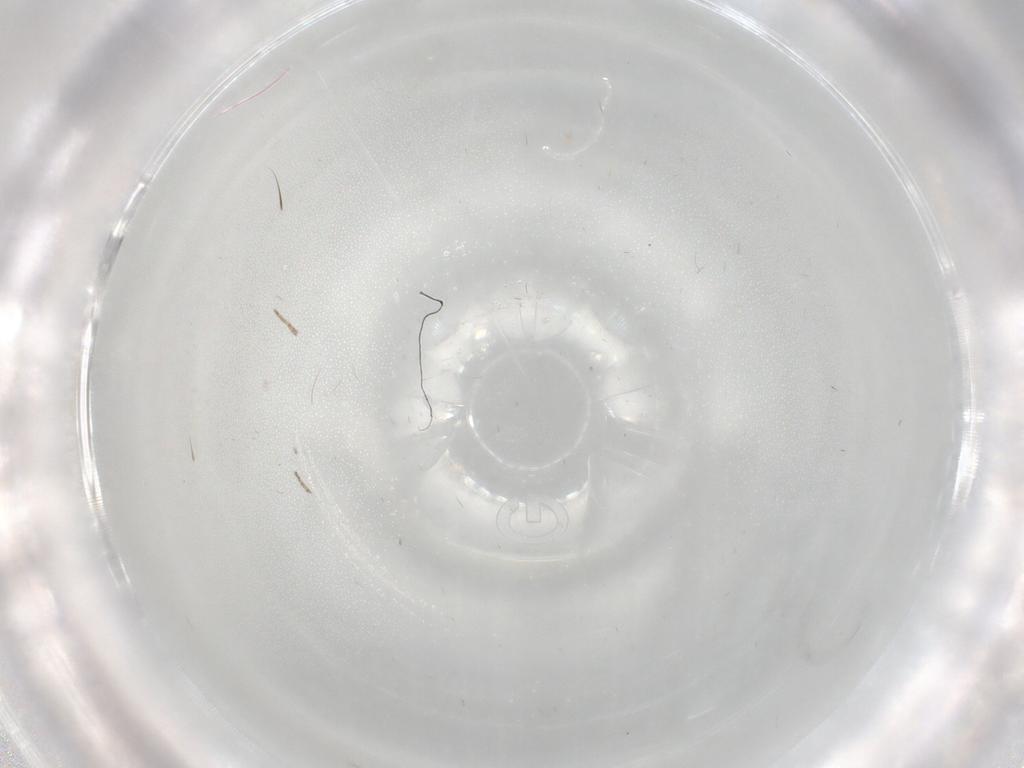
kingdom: Animalia
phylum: Arthropoda
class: Insecta
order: Diptera
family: Ceratopogonidae
